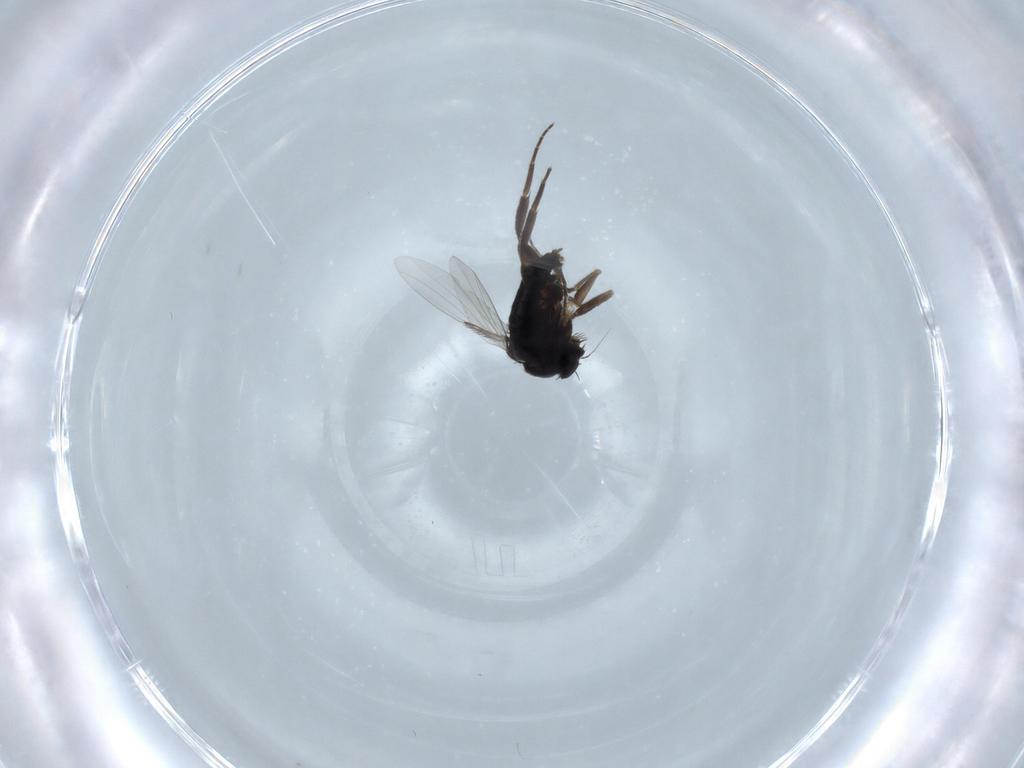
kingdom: Animalia
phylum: Arthropoda
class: Insecta
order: Diptera
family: Phoridae
